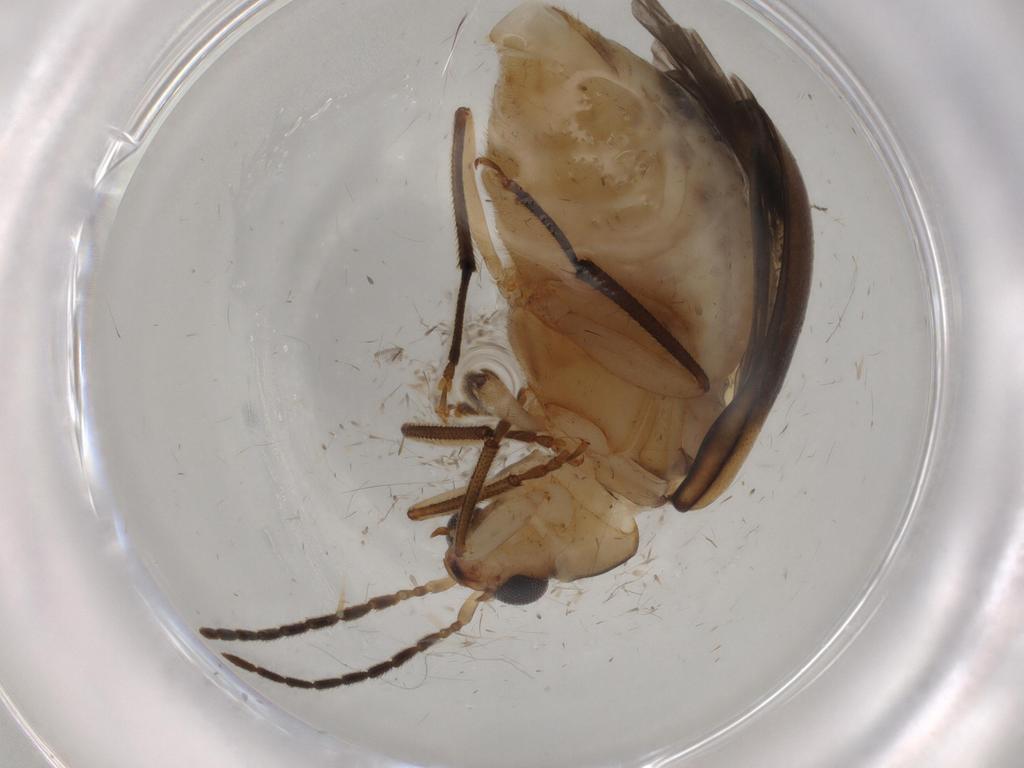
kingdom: Animalia
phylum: Arthropoda
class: Insecta
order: Coleoptera
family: Chrysomelidae
